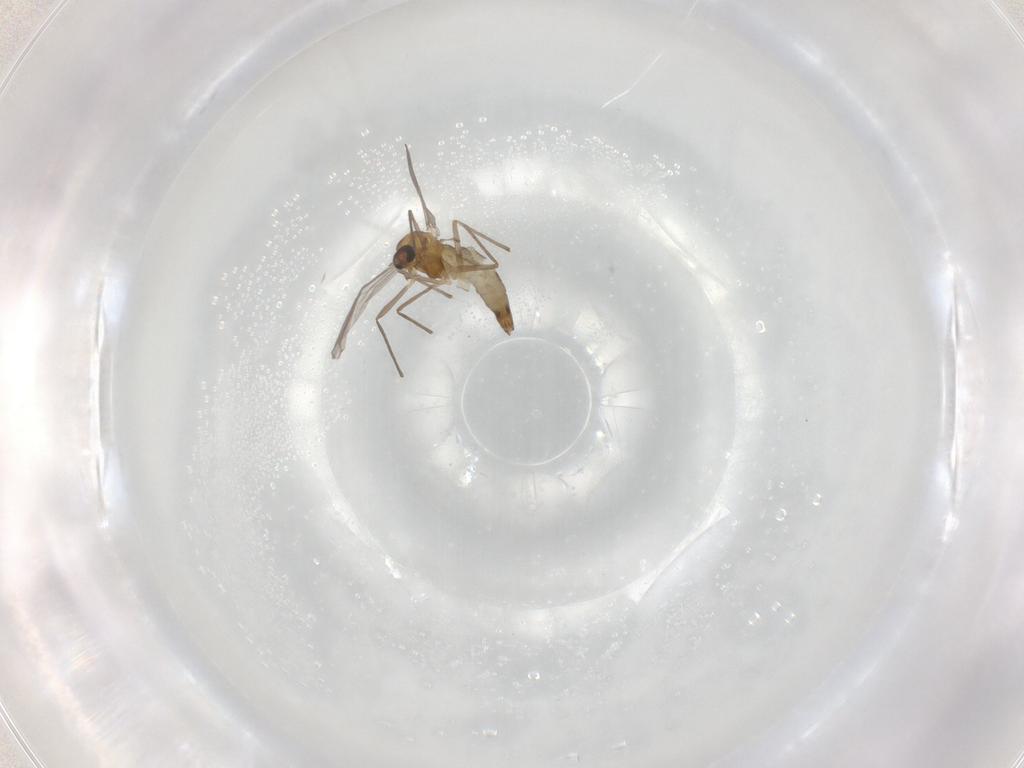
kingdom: Animalia
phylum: Arthropoda
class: Insecta
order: Diptera
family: Chironomidae
